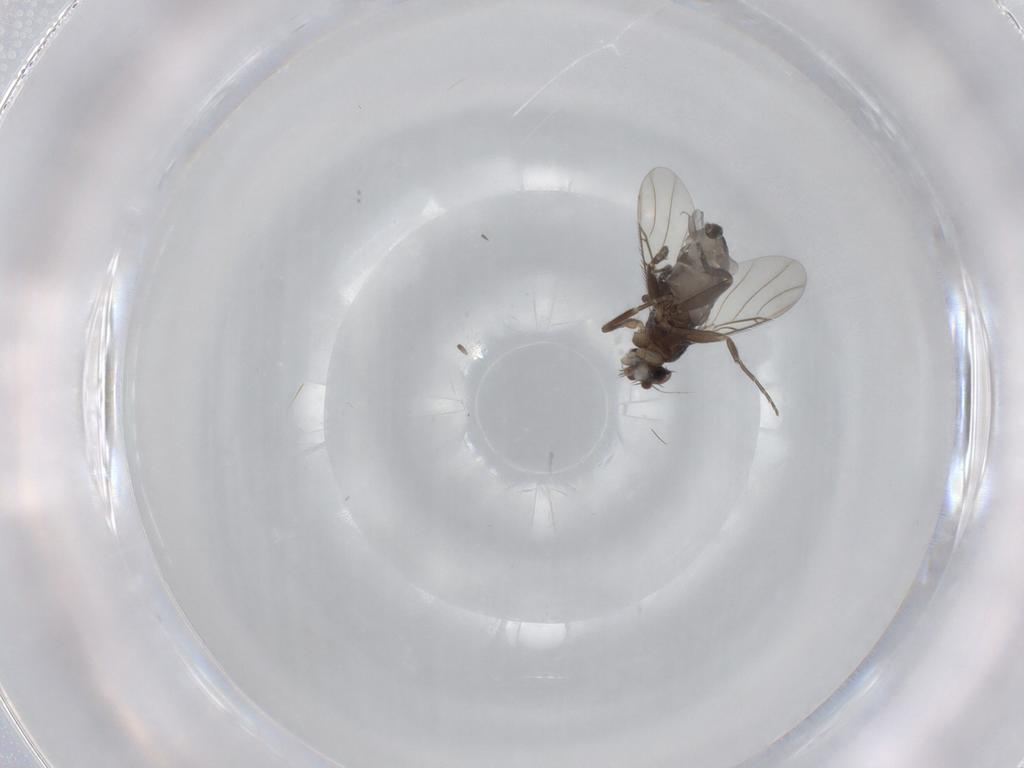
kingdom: Animalia
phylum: Arthropoda
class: Insecta
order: Diptera
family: Phoridae
